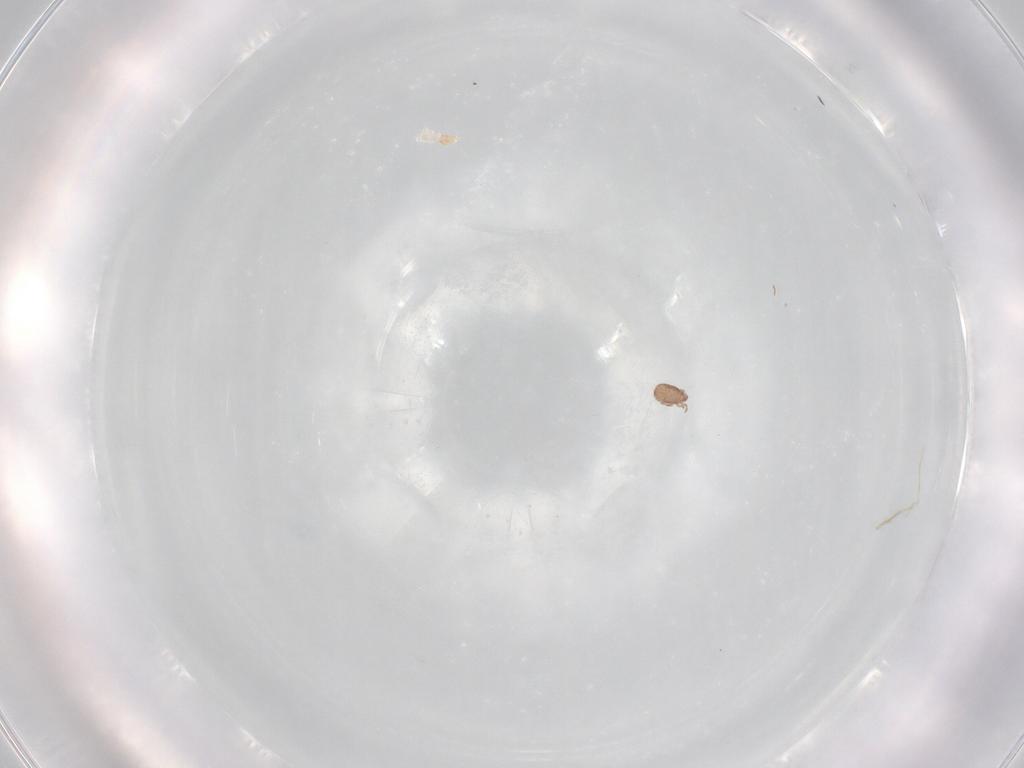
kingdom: Animalia
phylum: Arthropoda
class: Arachnida
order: Sarcoptiformes
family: Eremaeidae
